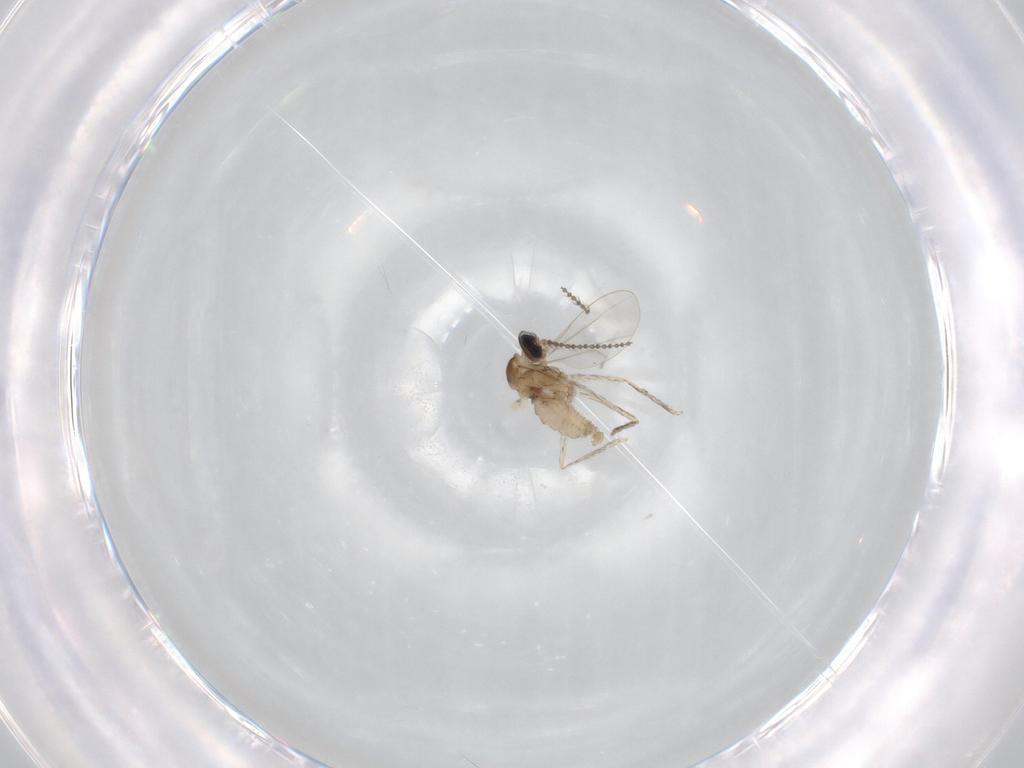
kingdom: Animalia
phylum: Arthropoda
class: Insecta
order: Diptera
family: Cecidomyiidae
